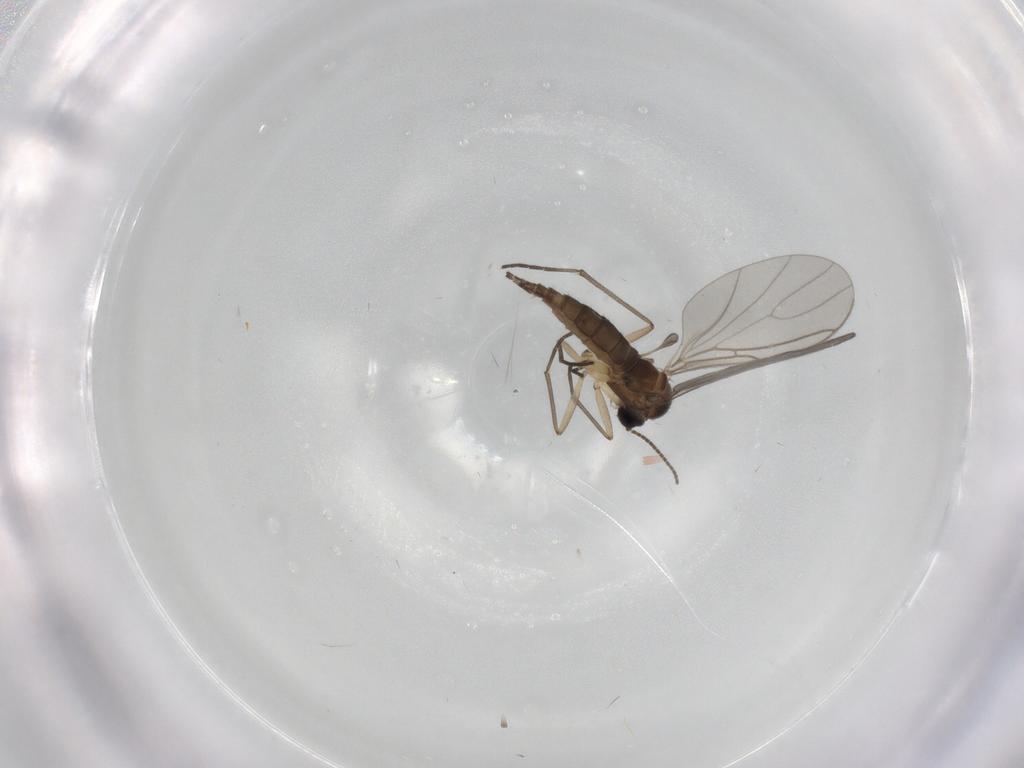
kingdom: Animalia
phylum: Arthropoda
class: Insecta
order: Diptera
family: Sciaridae
